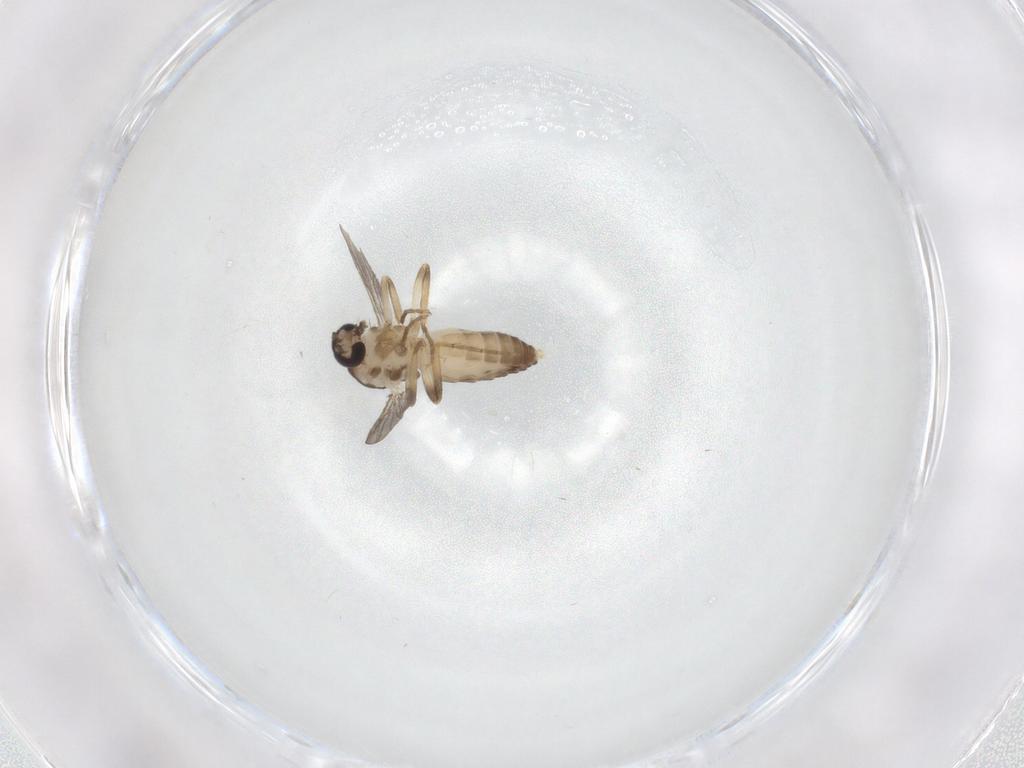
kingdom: Animalia
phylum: Arthropoda
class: Insecta
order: Diptera
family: Ceratopogonidae
